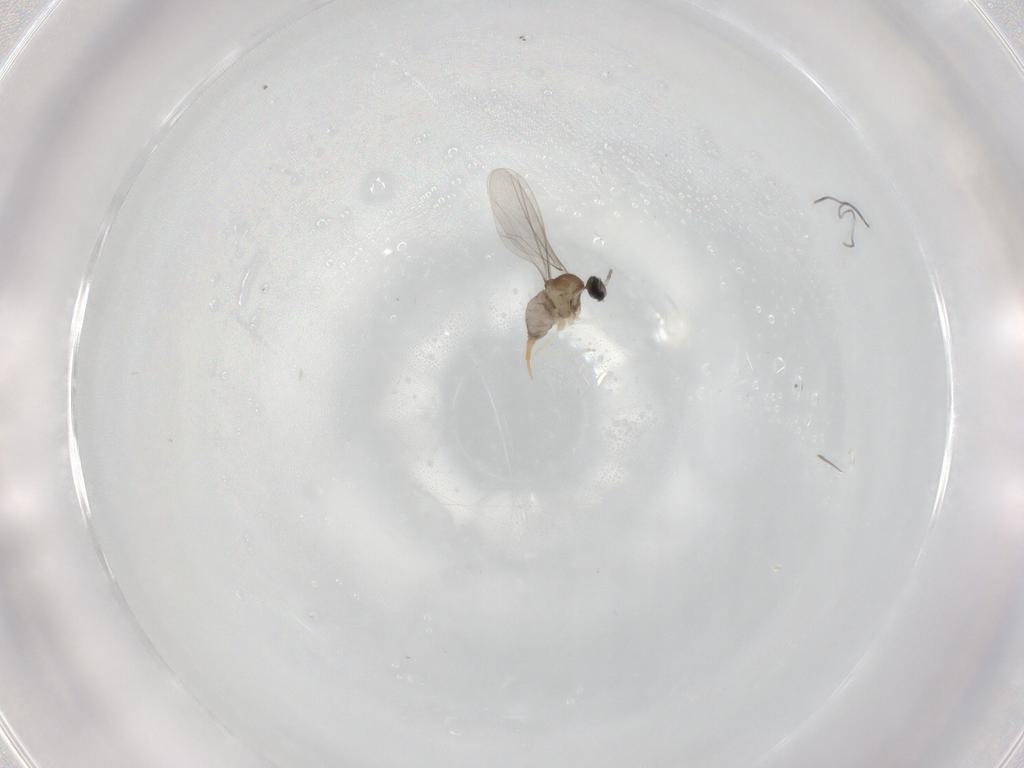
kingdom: Animalia
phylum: Arthropoda
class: Insecta
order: Diptera
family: Cecidomyiidae
